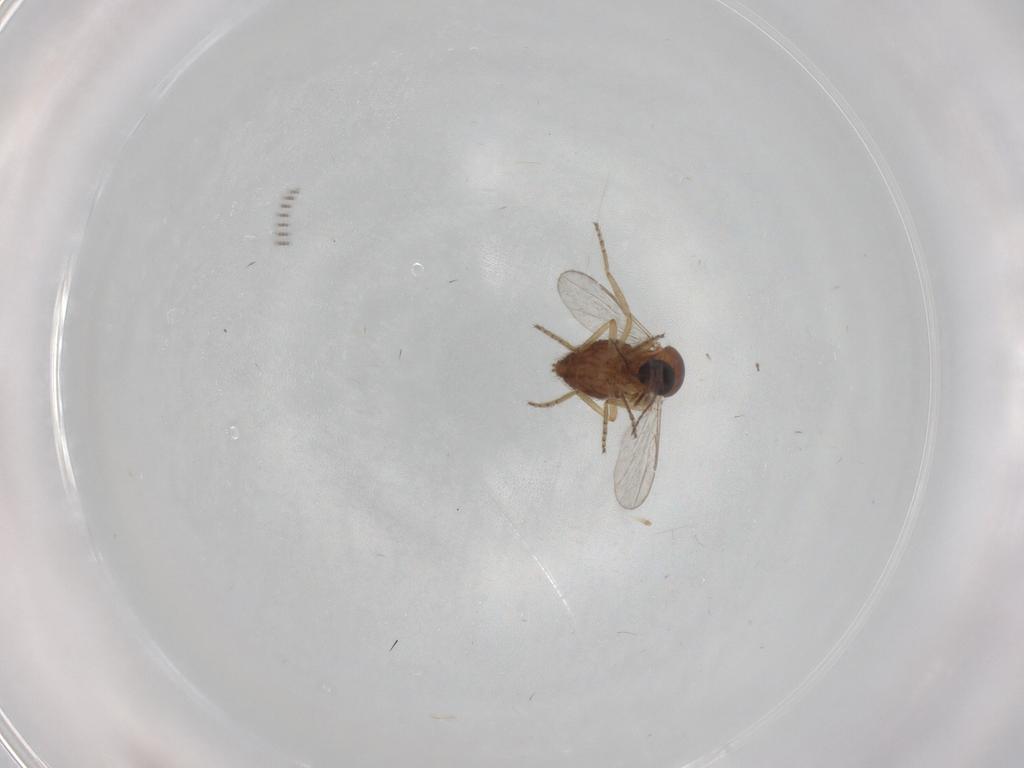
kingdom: Animalia
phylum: Arthropoda
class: Insecta
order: Diptera
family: Ceratopogonidae
